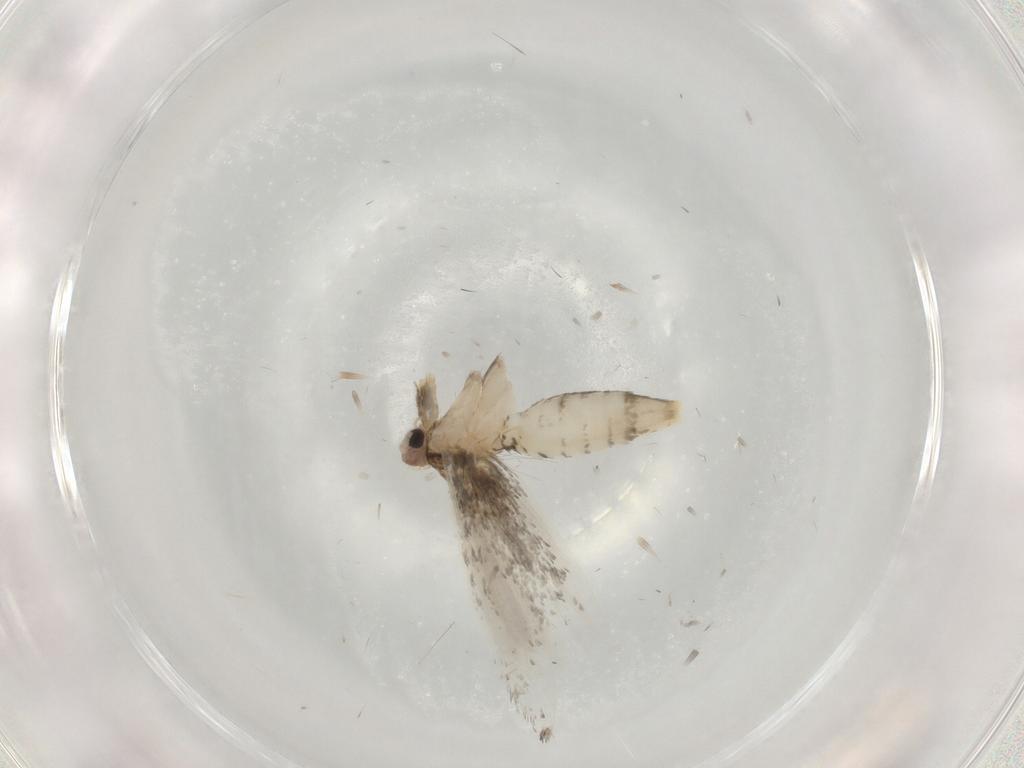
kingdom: Animalia
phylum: Arthropoda
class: Insecta
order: Lepidoptera
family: Tineidae
